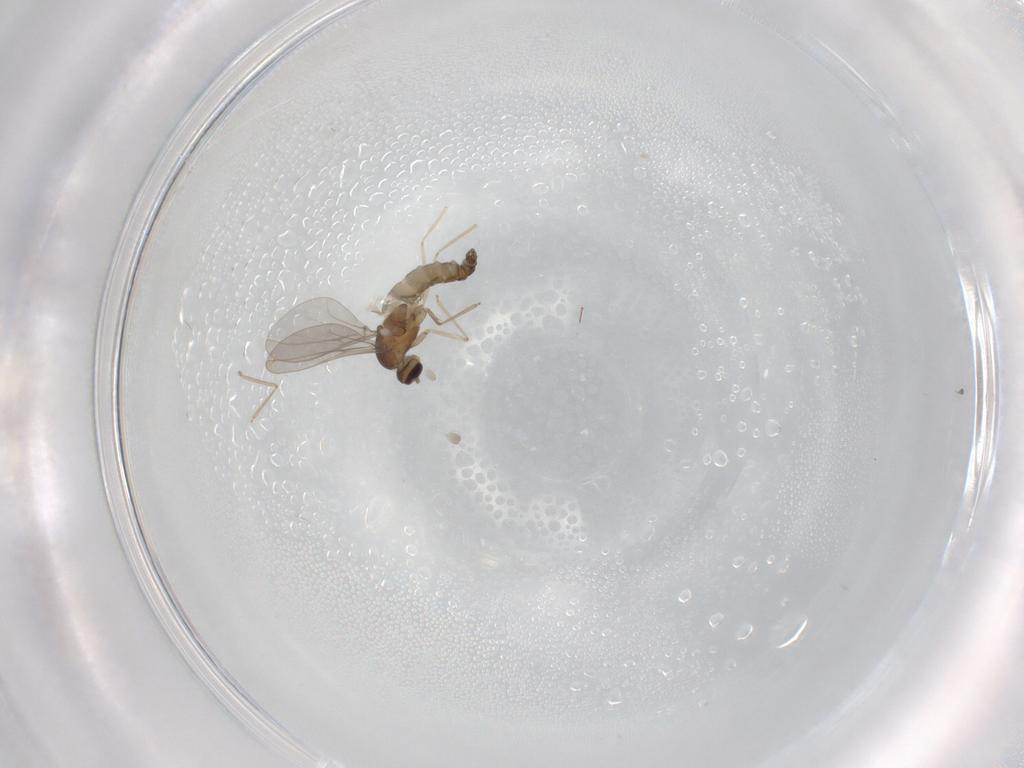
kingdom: Animalia
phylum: Arthropoda
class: Insecta
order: Diptera
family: Cecidomyiidae
